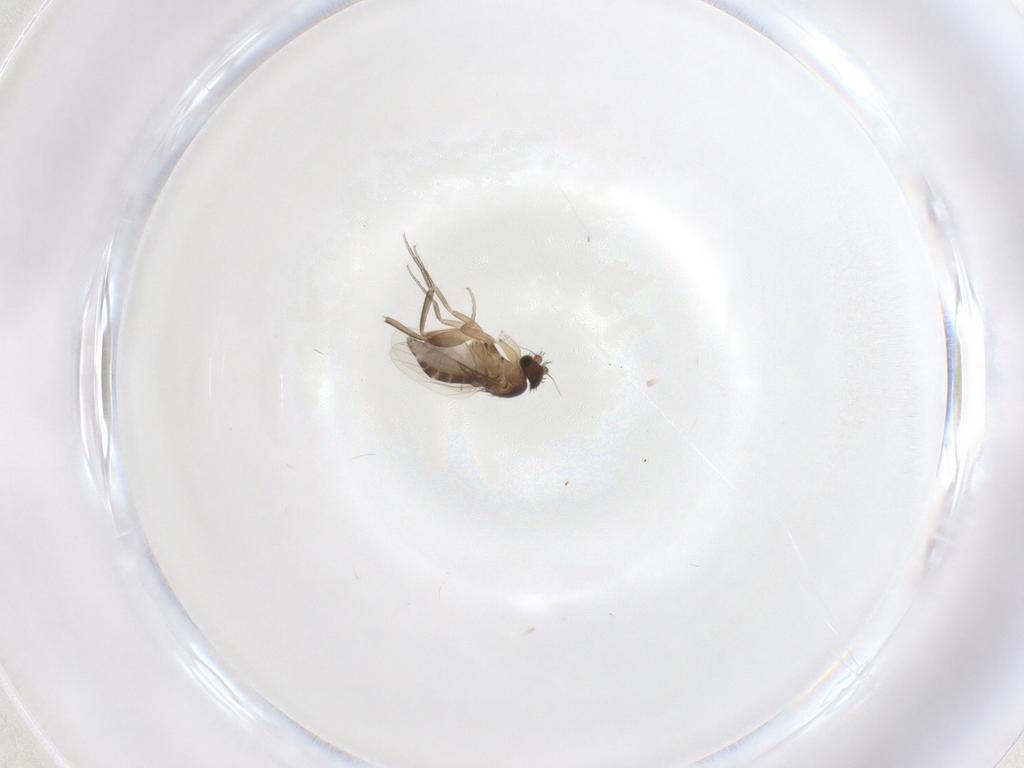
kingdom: Animalia
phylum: Arthropoda
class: Insecta
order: Diptera
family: Phoridae
